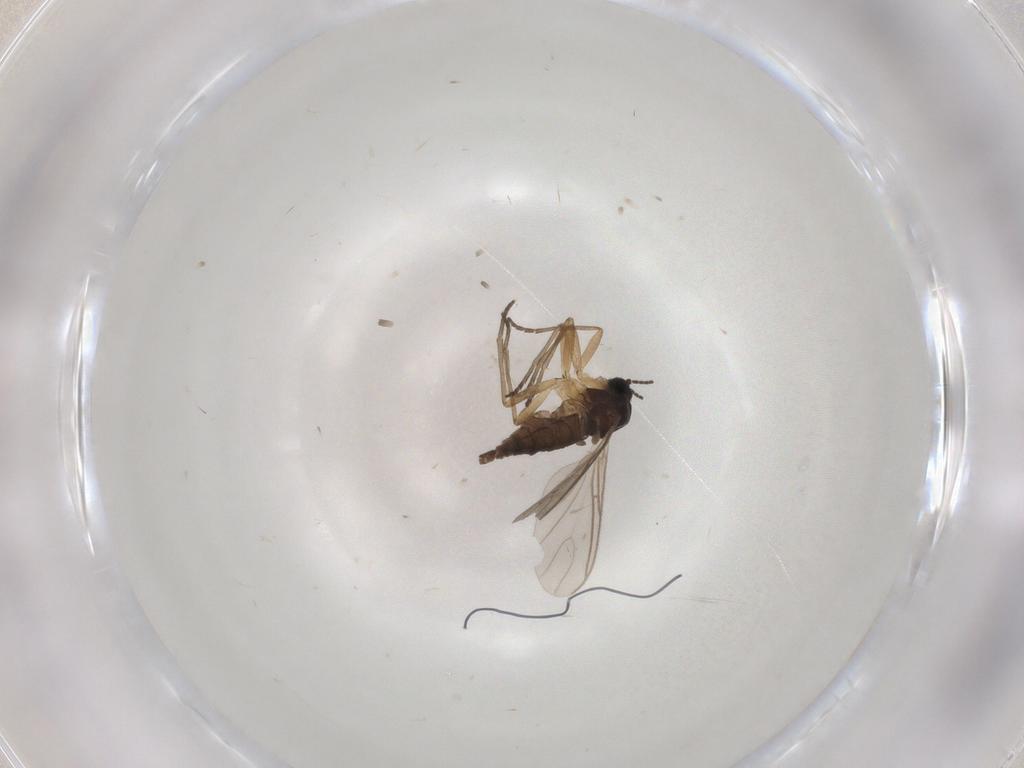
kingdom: Animalia
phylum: Arthropoda
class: Insecta
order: Diptera
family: Sciaridae
